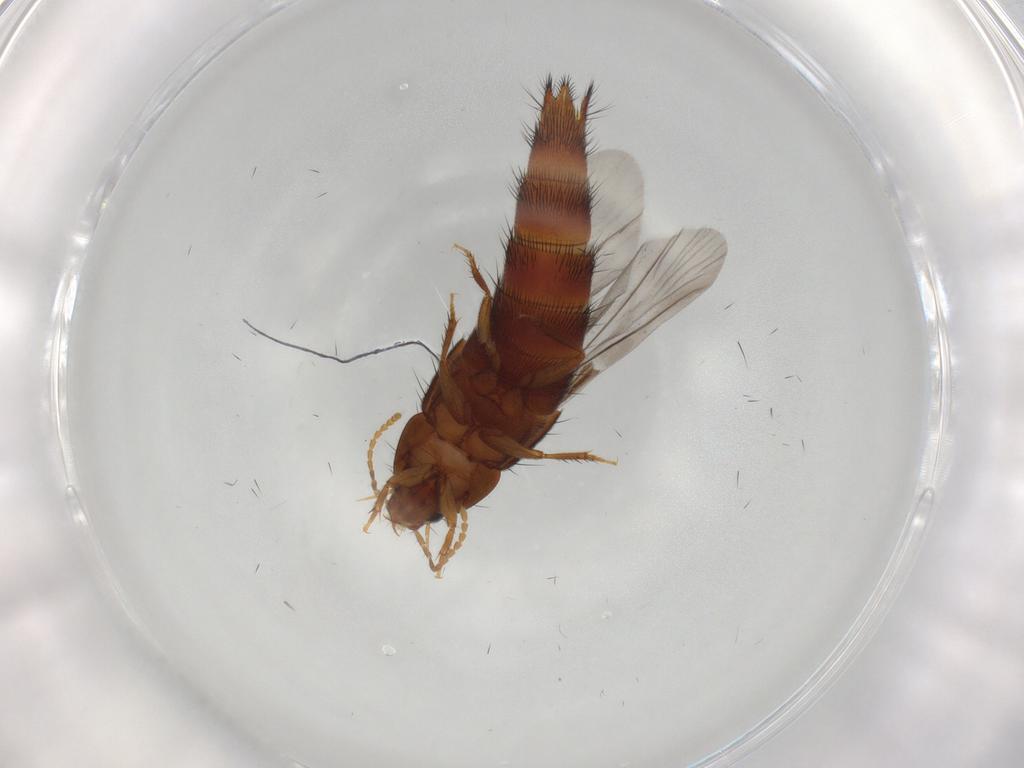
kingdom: Animalia
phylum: Arthropoda
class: Insecta
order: Coleoptera
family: Staphylinidae
